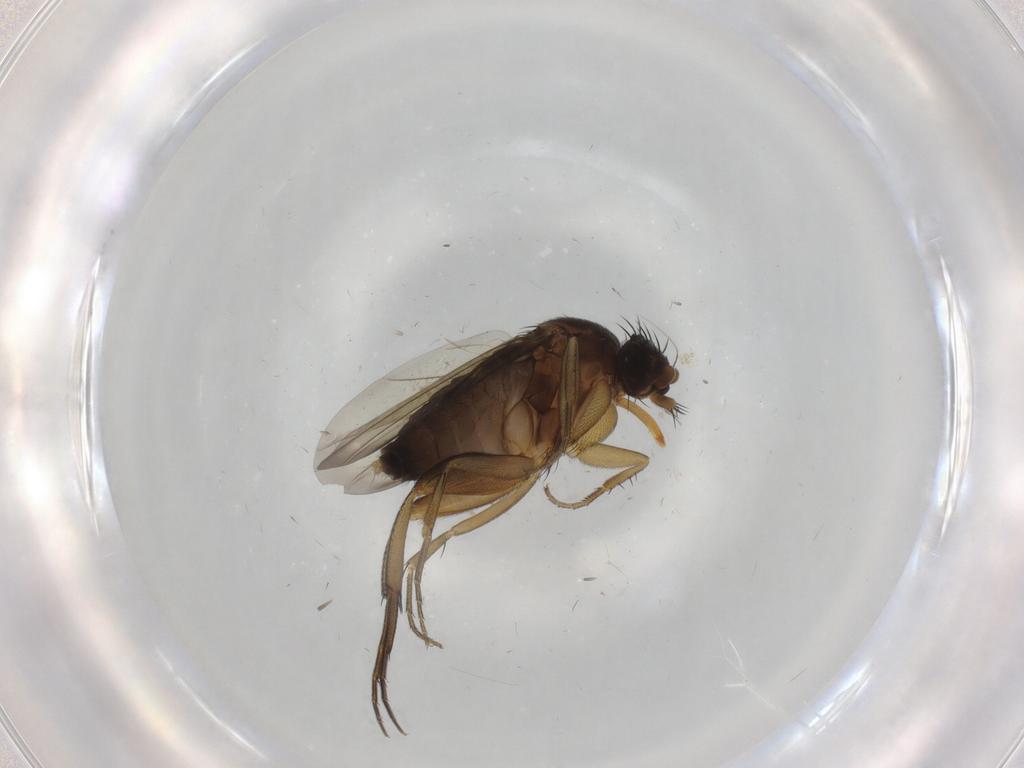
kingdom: Animalia
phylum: Arthropoda
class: Insecta
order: Diptera
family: Phoridae
